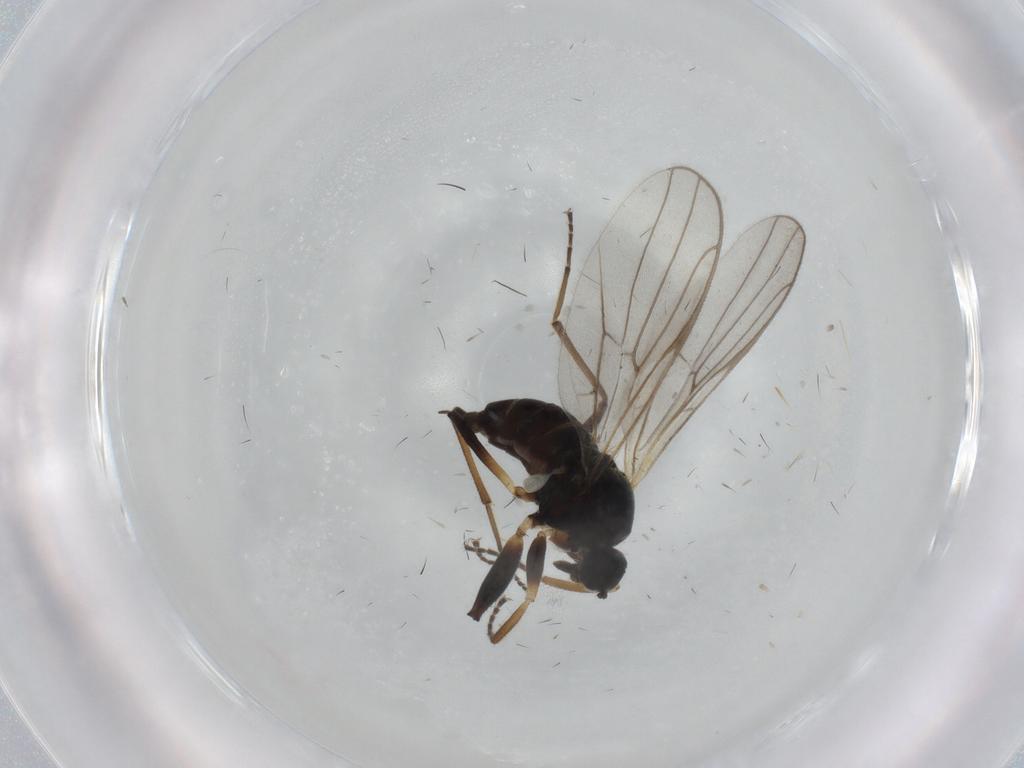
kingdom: Animalia
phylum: Arthropoda
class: Insecta
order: Diptera
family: Hybotidae
